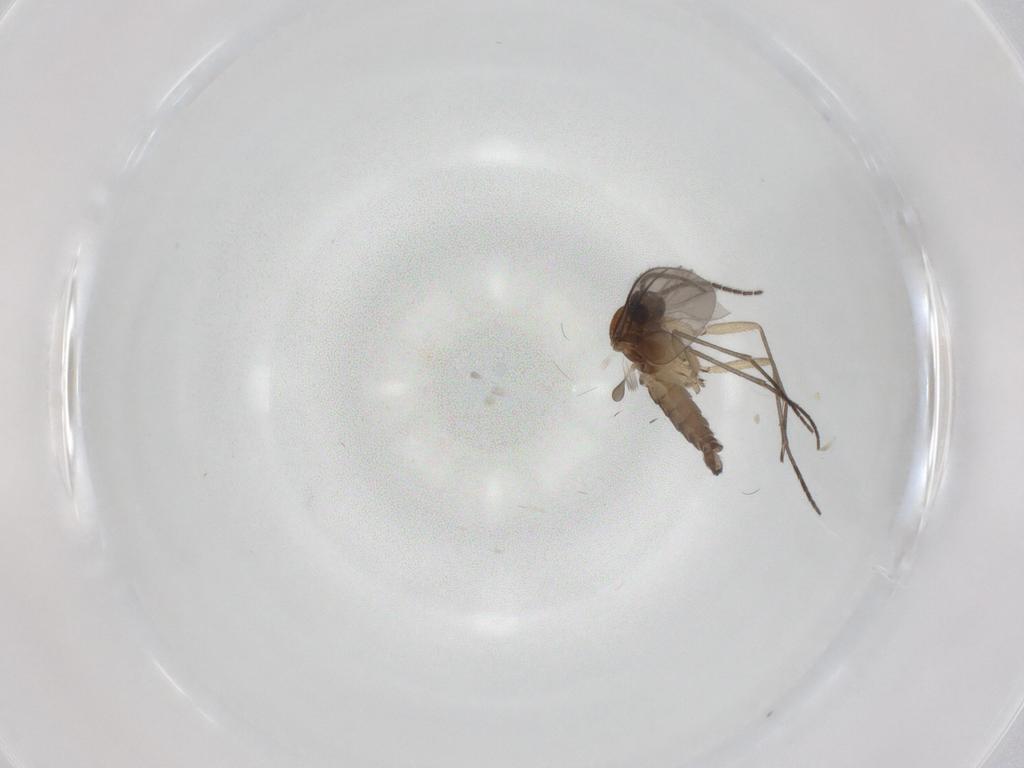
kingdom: Animalia
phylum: Arthropoda
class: Insecta
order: Diptera
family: Sciaridae
